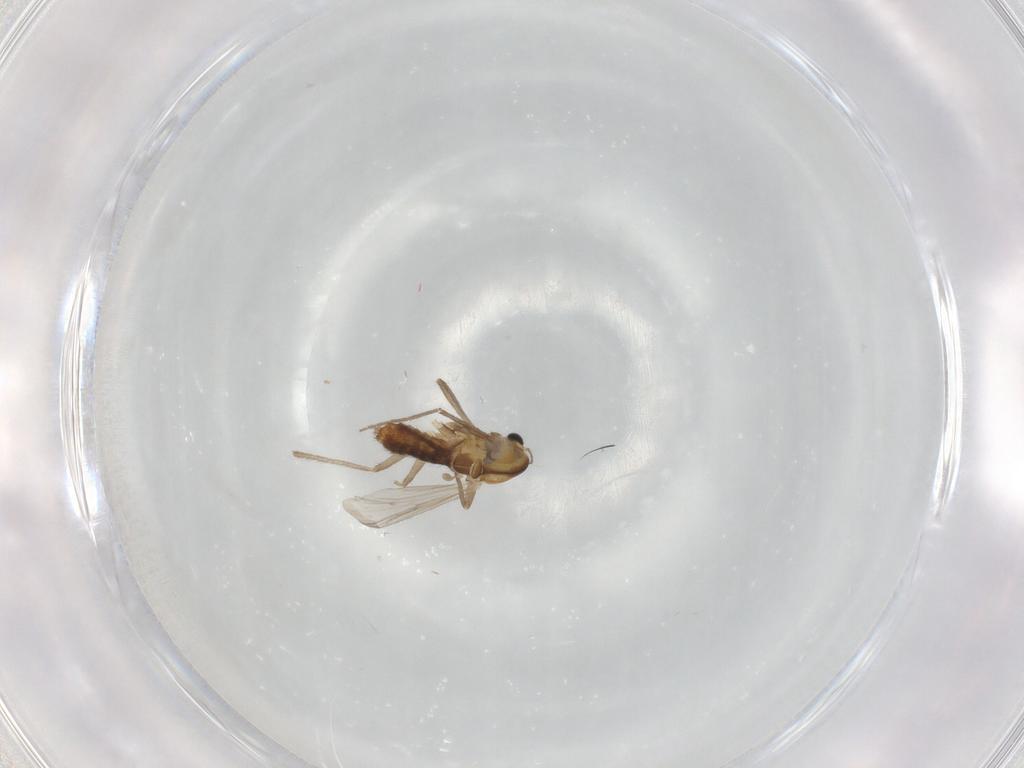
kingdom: Animalia
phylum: Arthropoda
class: Insecta
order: Diptera
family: Chironomidae
